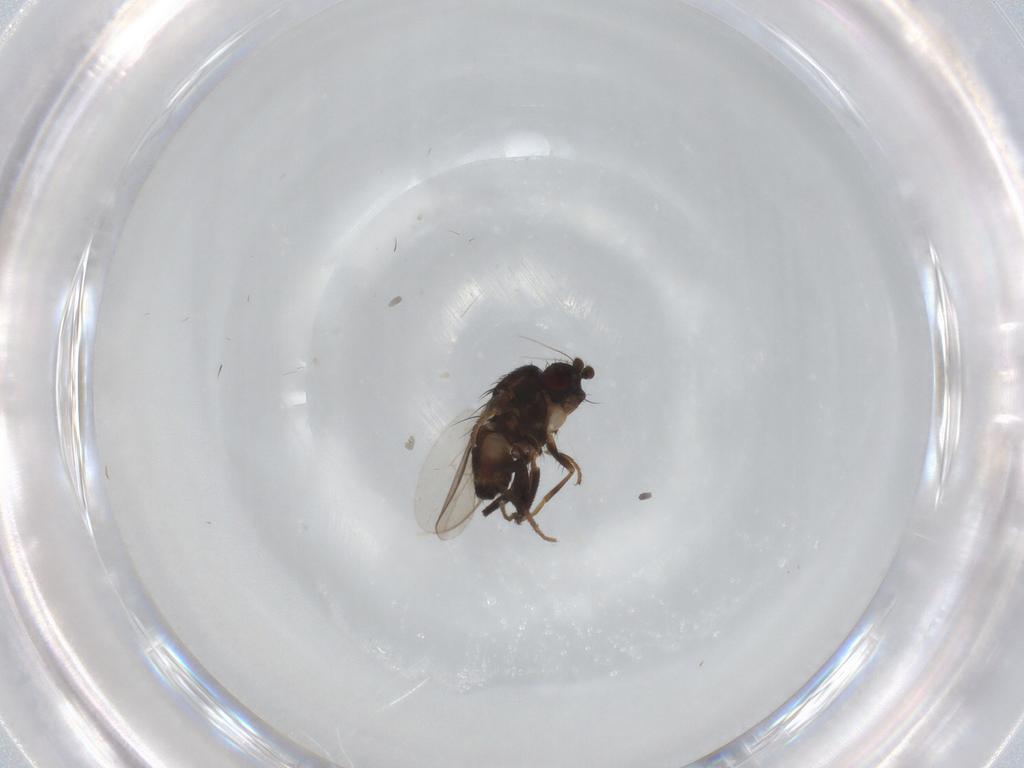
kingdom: Animalia
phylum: Arthropoda
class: Insecta
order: Diptera
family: Sphaeroceridae
